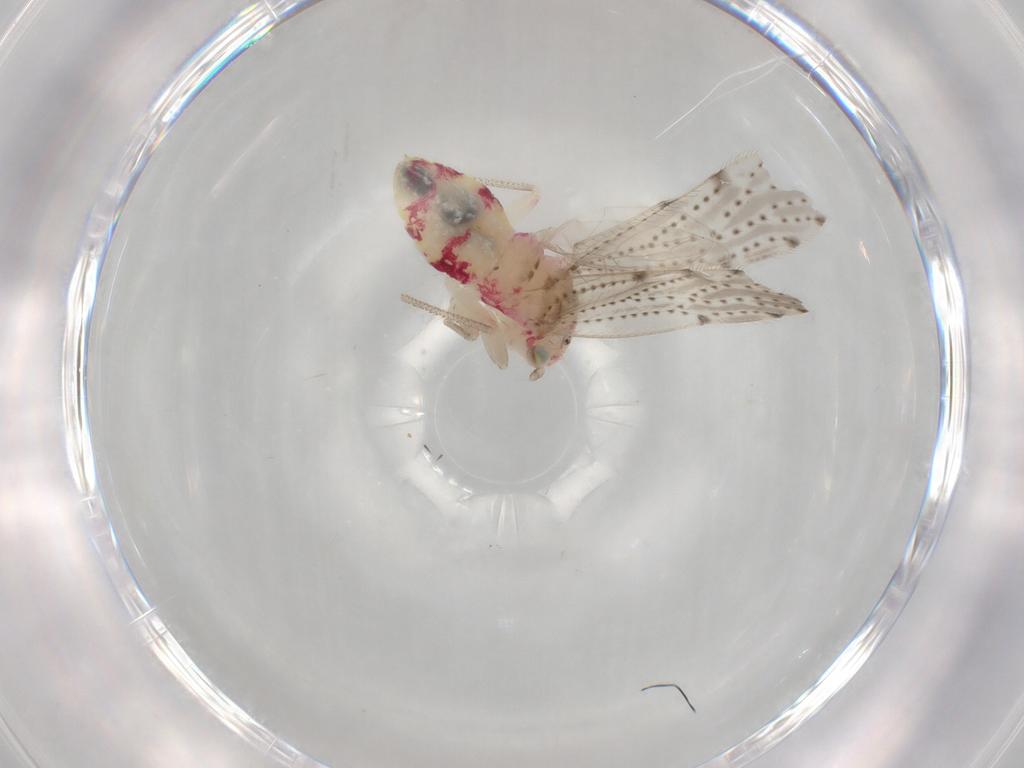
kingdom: Animalia
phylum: Arthropoda
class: Insecta
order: Psocodea
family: Hemipsocidae
